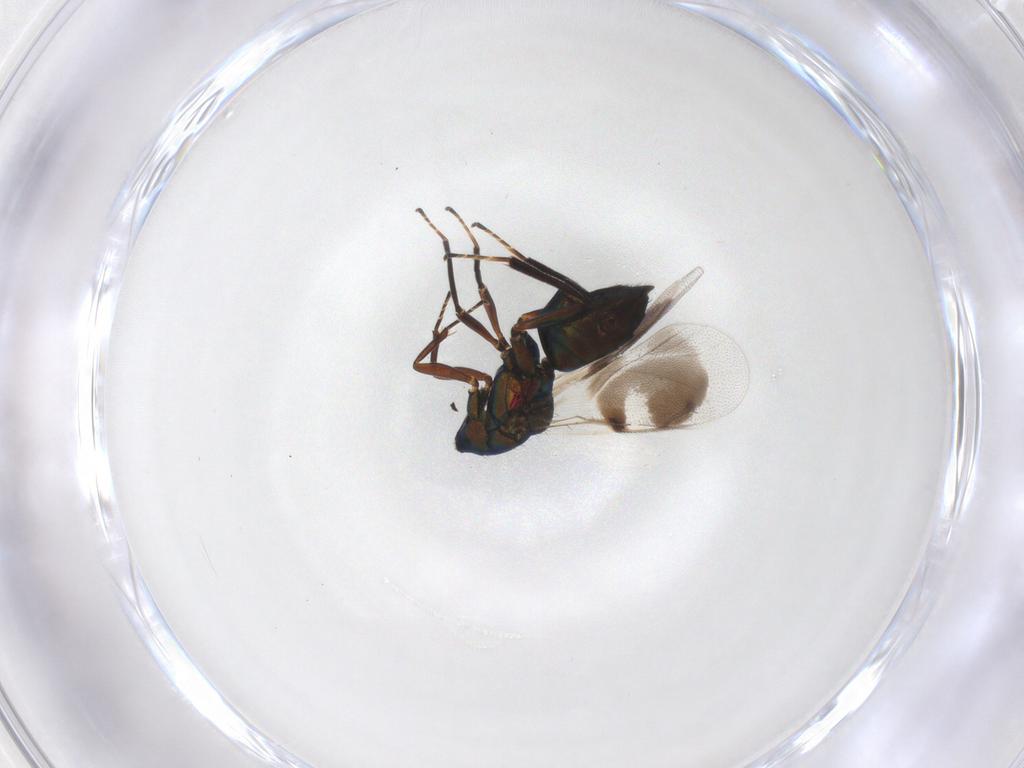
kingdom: Animalia
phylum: Arthropoda
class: Insecta
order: Hymenoptera
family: Pteromalidae
